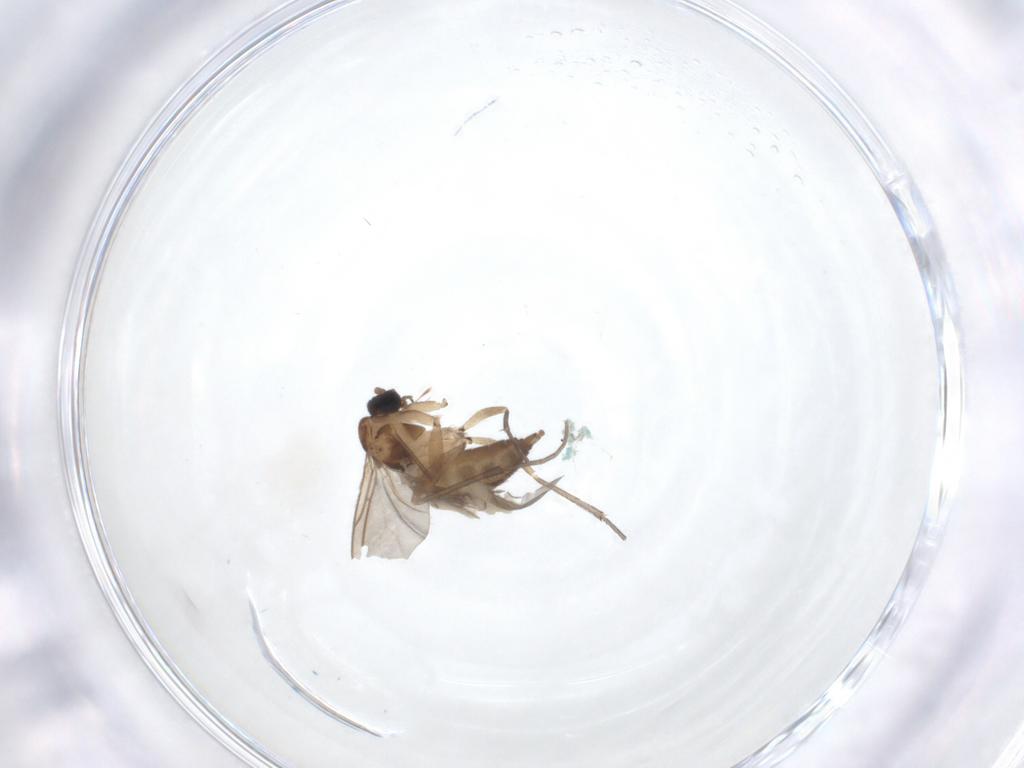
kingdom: Animalia
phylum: Arthropoda
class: Insecta
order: Diptera
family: Sciaridae
